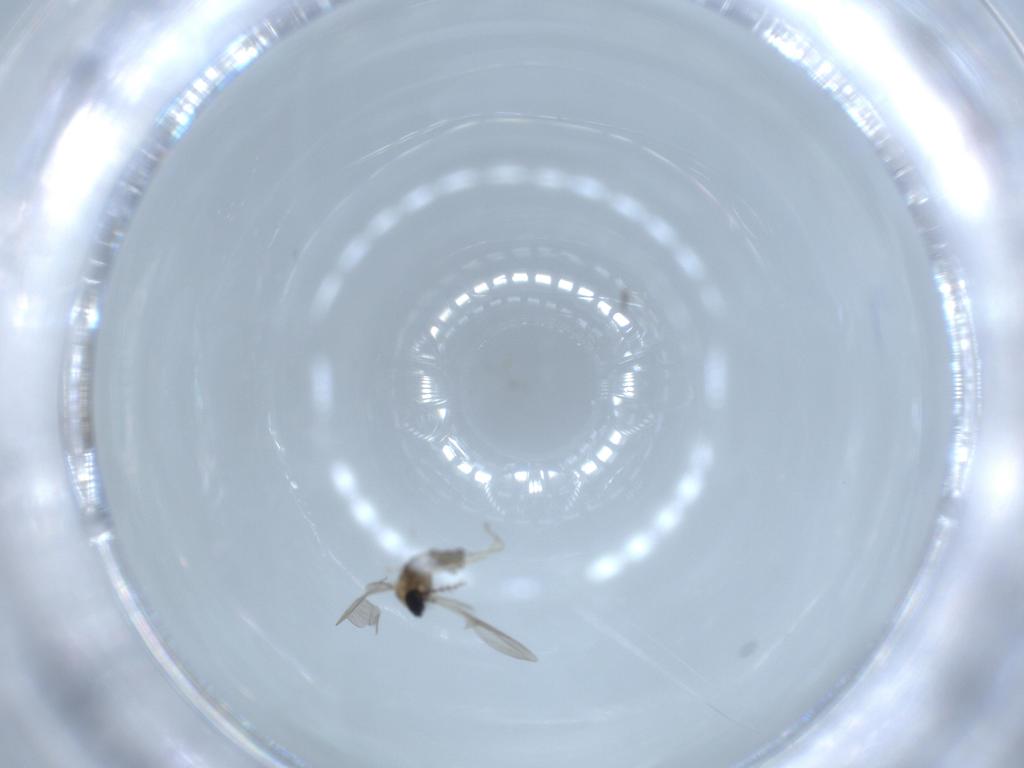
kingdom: Animalia
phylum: Arthropoda
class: Insecta
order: Diptera
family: Cecidomyiidae
